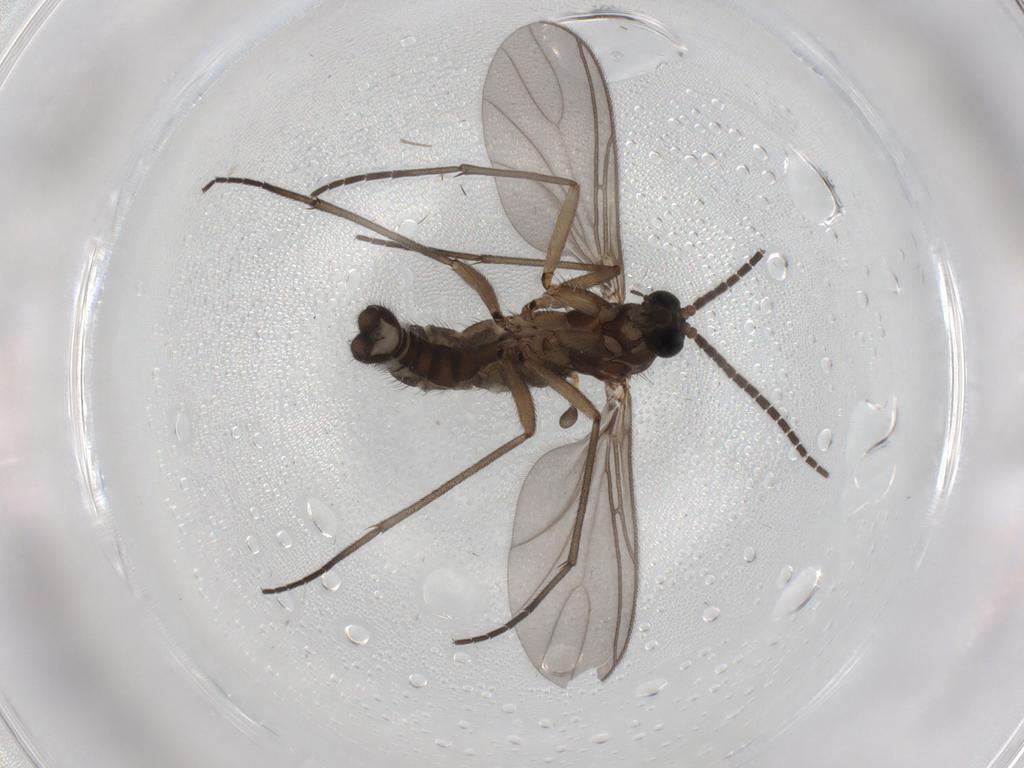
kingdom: Animalia
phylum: Arthropoda
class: Insecta
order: Diptera
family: Sciaridae
